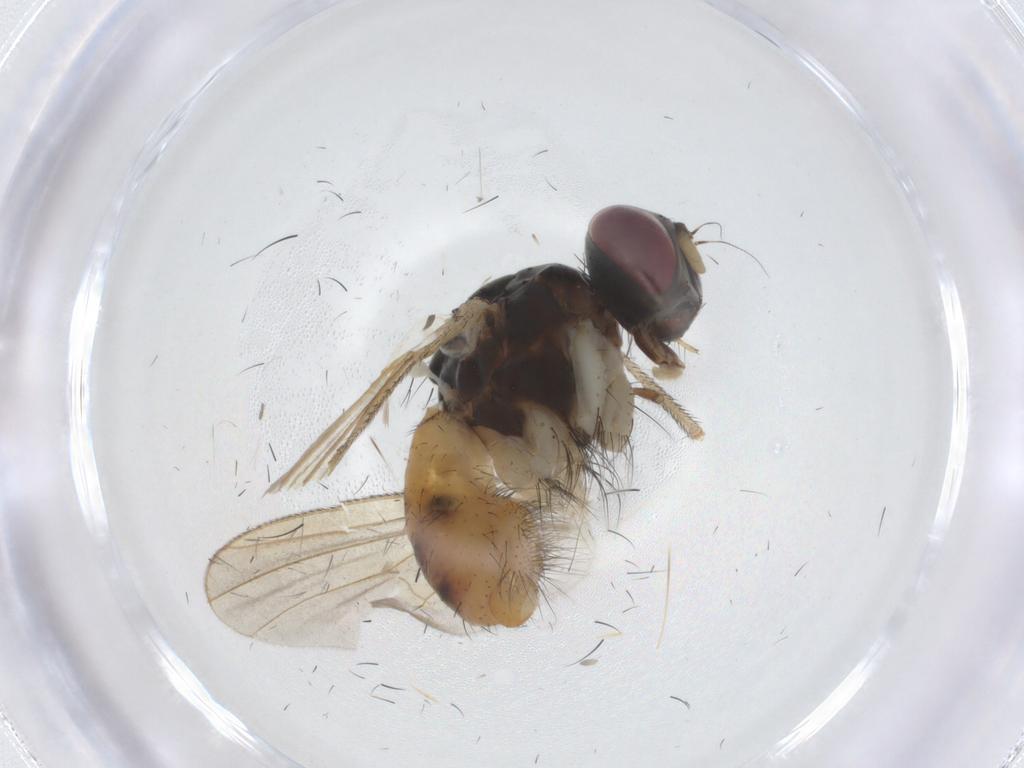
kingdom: Animalia
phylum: Arthropoda
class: Insecta
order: Diptera
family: Muscidae
